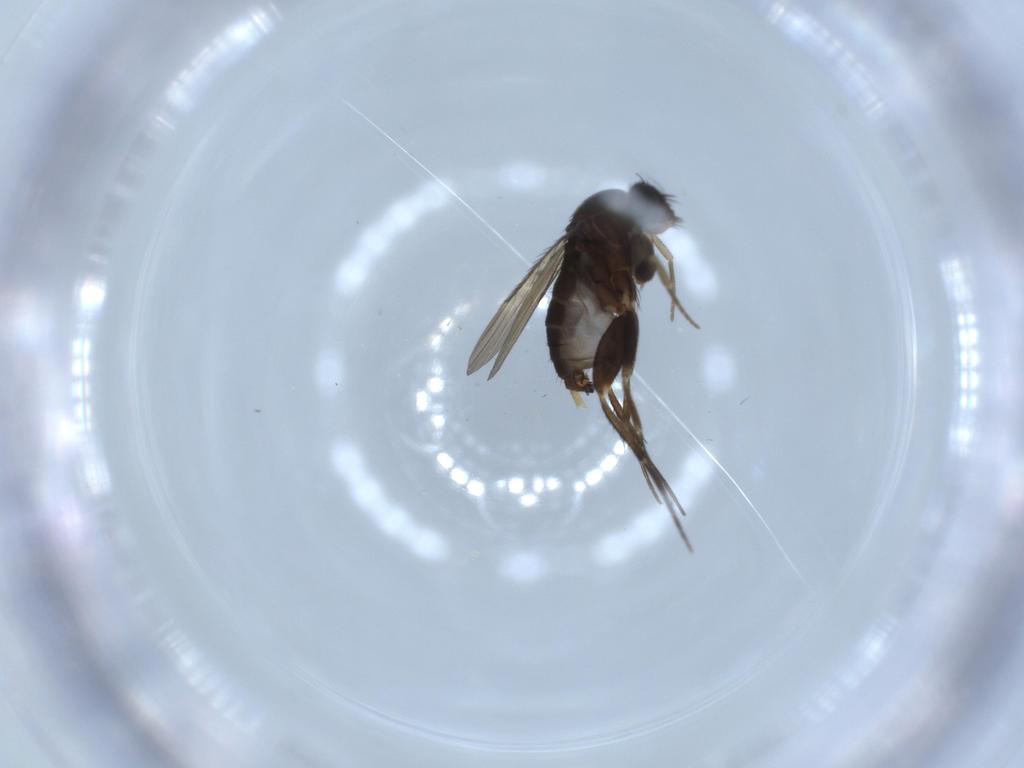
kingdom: Animalia
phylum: Arthropoda
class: Insecta
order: Diptera
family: Phoridae
